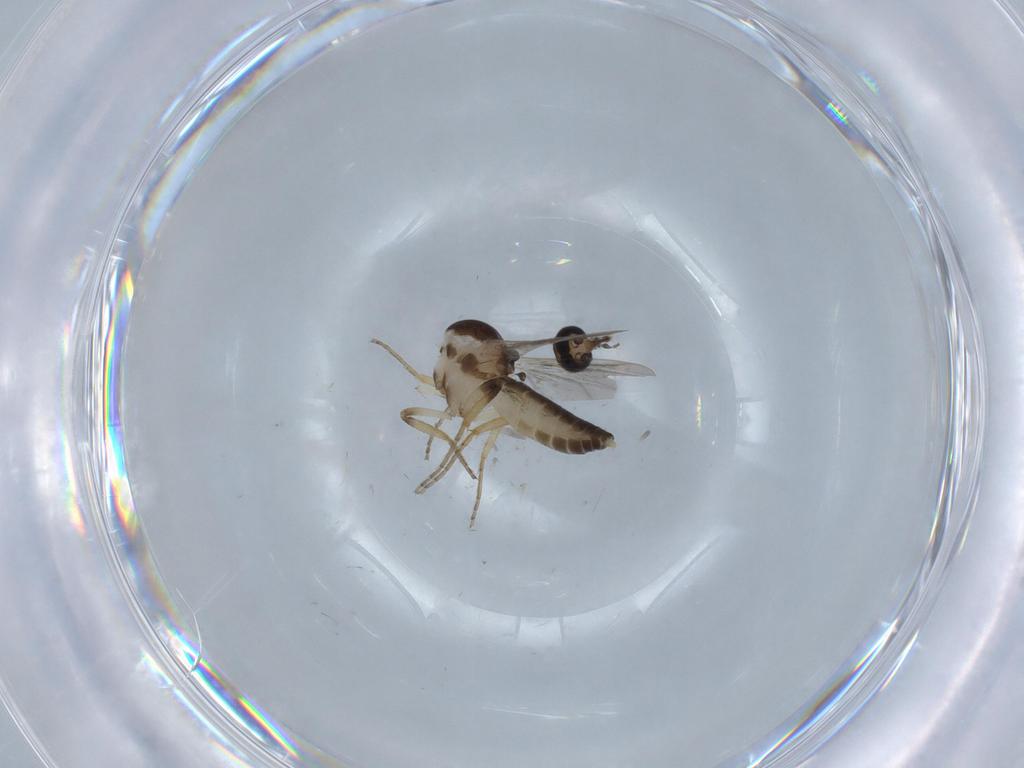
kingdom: Animalia
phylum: Arthropoda
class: Insecta
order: Diptera
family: Chironomidae
